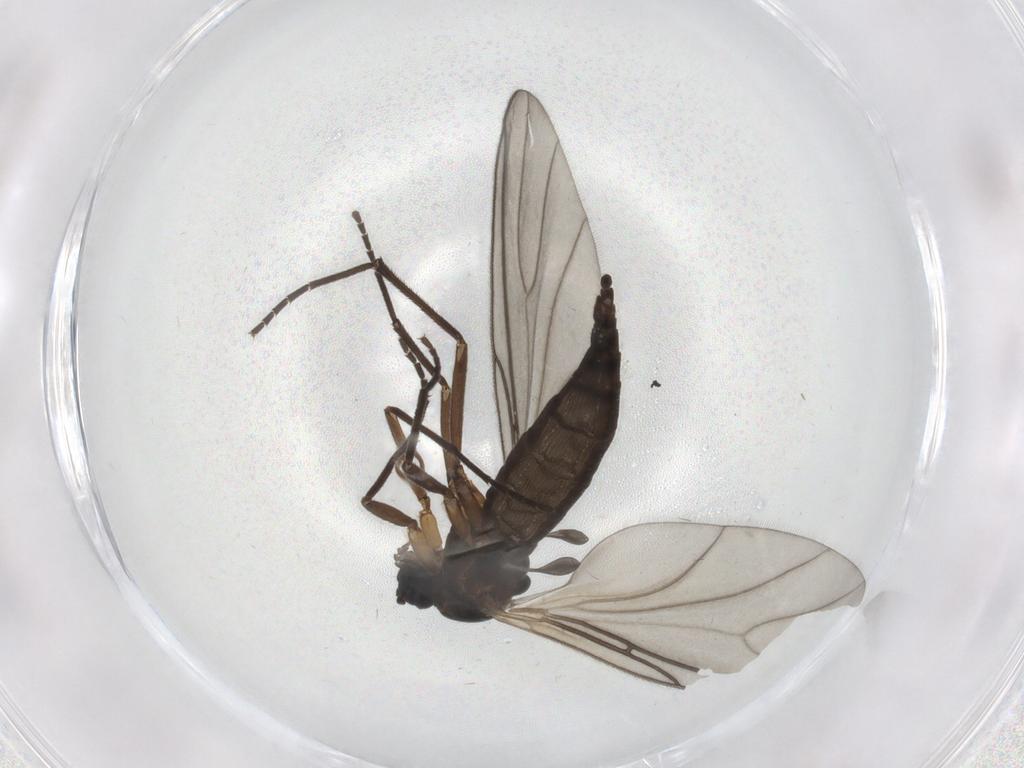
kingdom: Animalia
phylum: Arthropoda
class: Insecta
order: Diptera
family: Sciaridae
